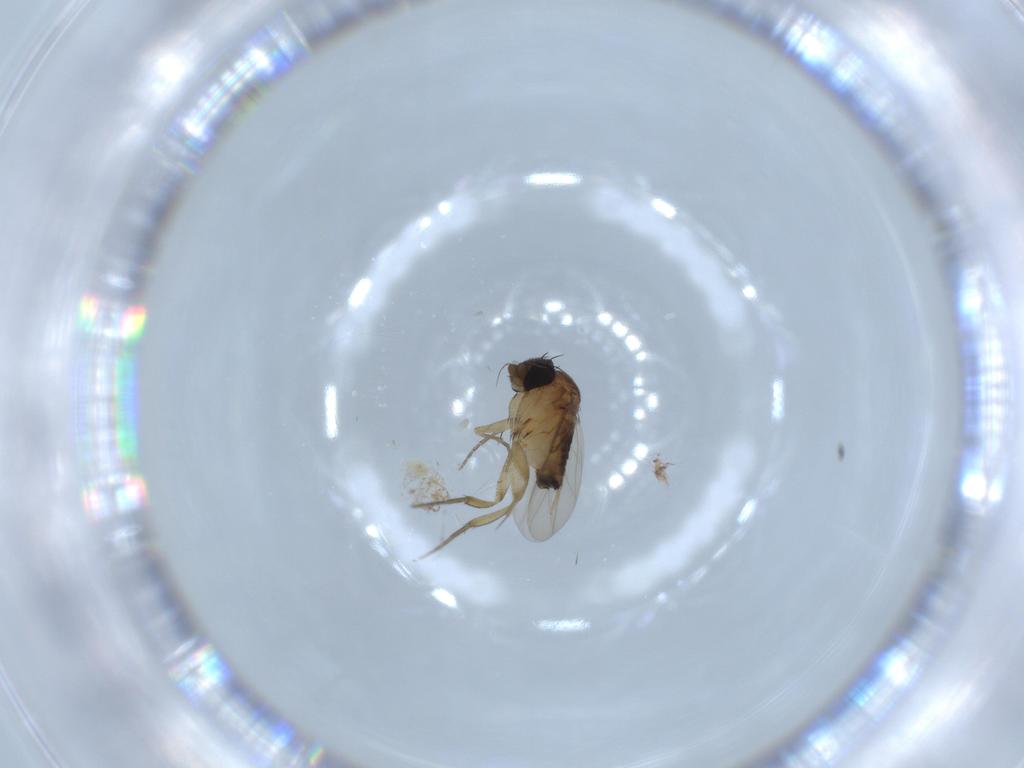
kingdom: Animalia
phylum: Arthropoda
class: Insecta
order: Diptera
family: Phoridae
